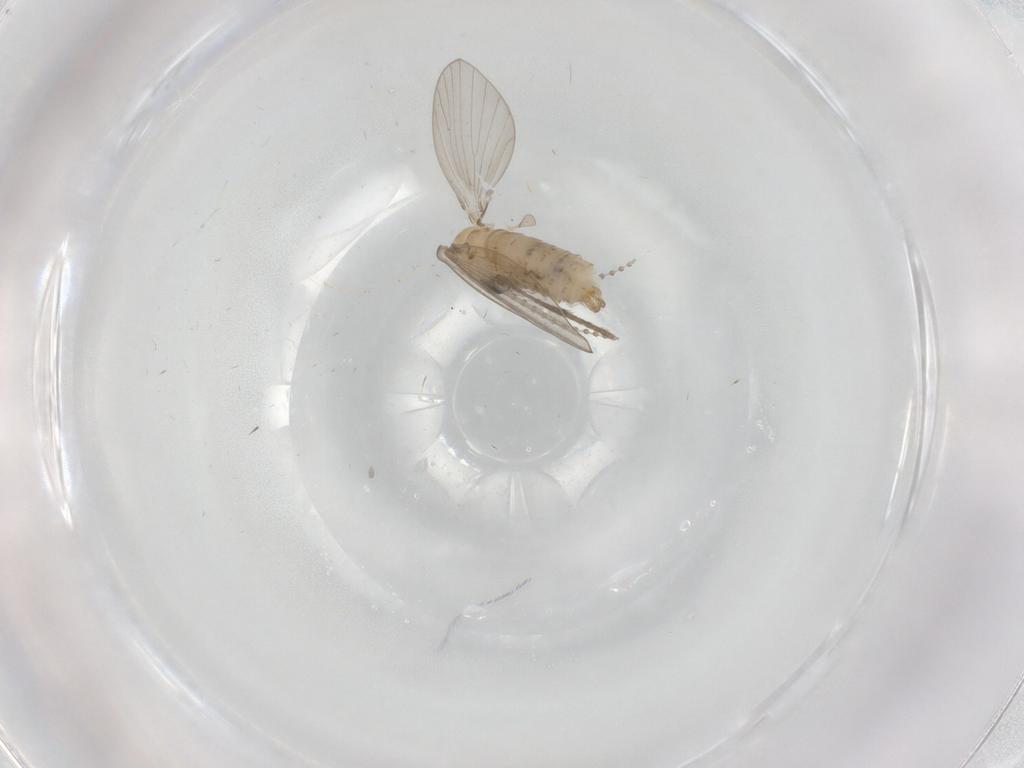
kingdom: Animalia
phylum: Arthropoda
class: Insecta
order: Diptera
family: Psychodidae
